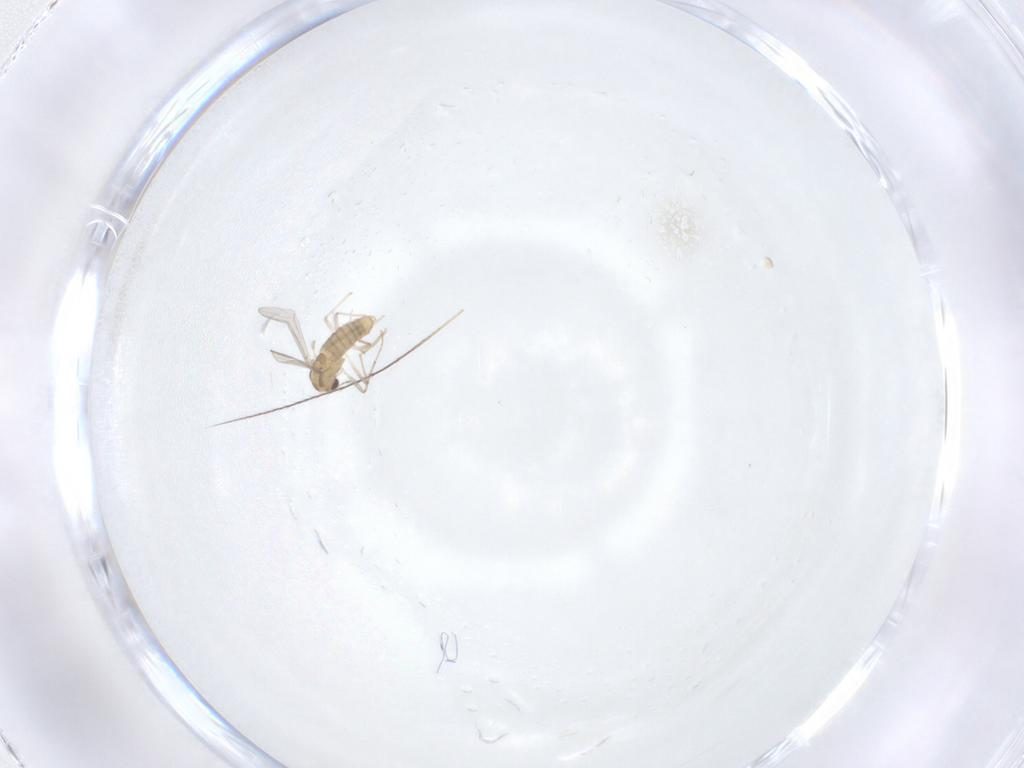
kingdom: Animalia
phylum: Arthropoda
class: Insecta
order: Diptera
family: Chironomidae
